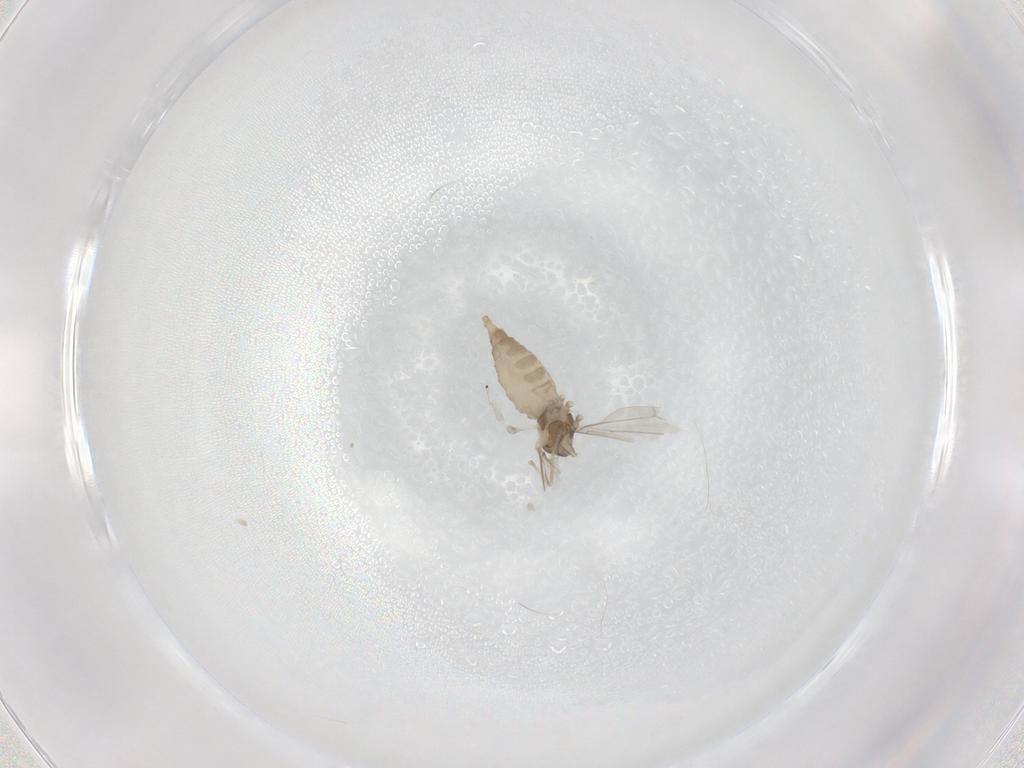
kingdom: Animalia
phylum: Arthropoda
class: Insecta
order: Diptera
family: Cecidomyiidae
